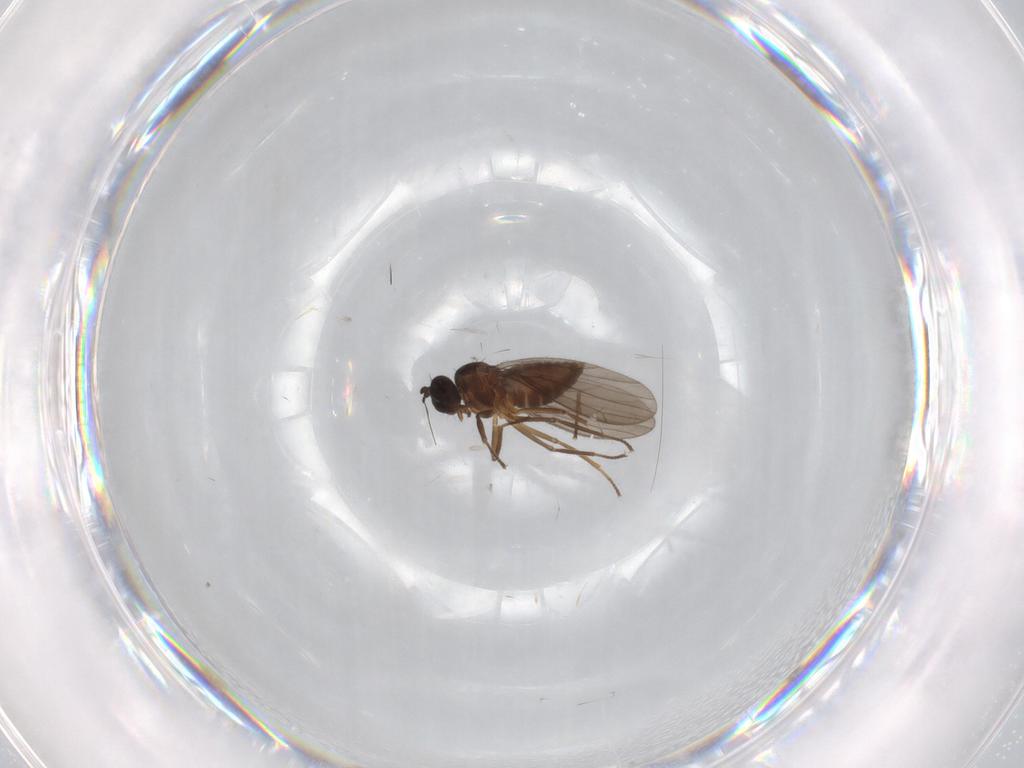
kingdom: Animalia
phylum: Arthropoda
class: Insecta
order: Diptera
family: Empididae
